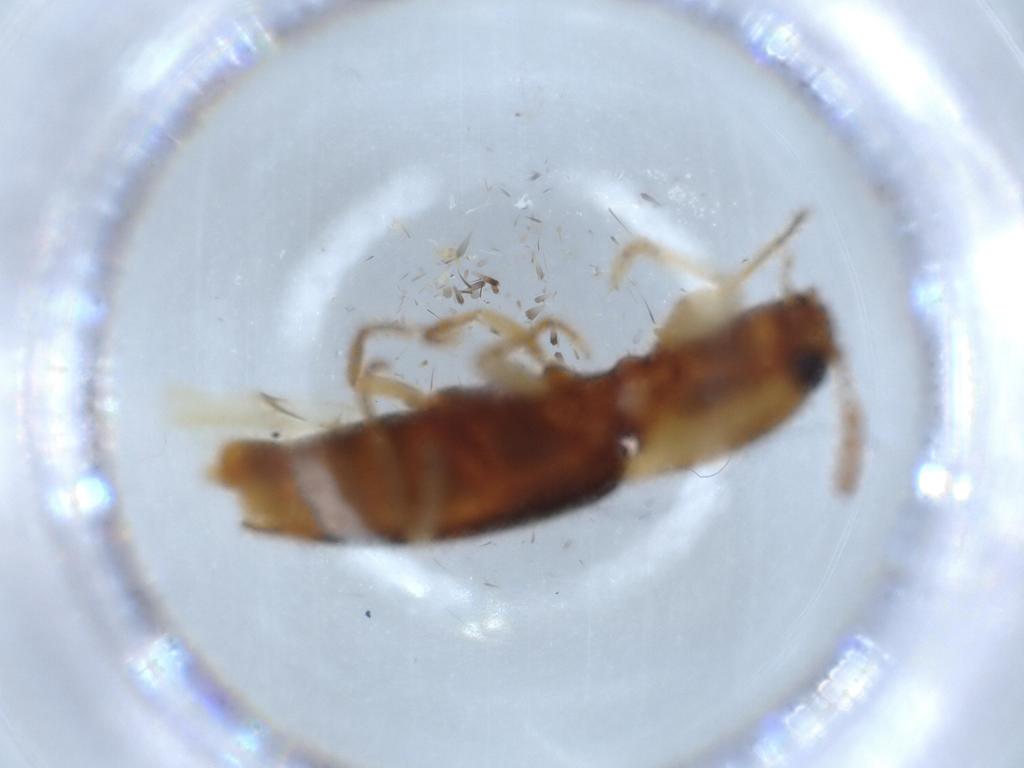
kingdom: Animalia
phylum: Arthropoda
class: Insecta
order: Coleoptera
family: Elateridae
